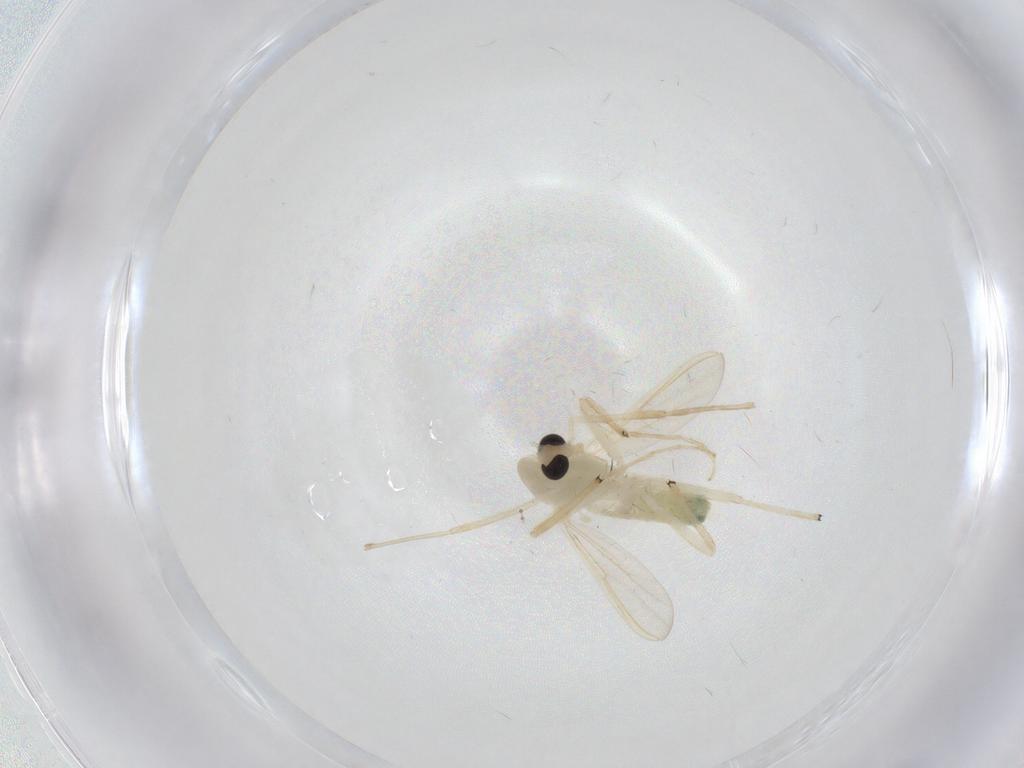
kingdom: Animalia
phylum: Arthropoda
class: Insecta
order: Diptera
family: Chironomidae
